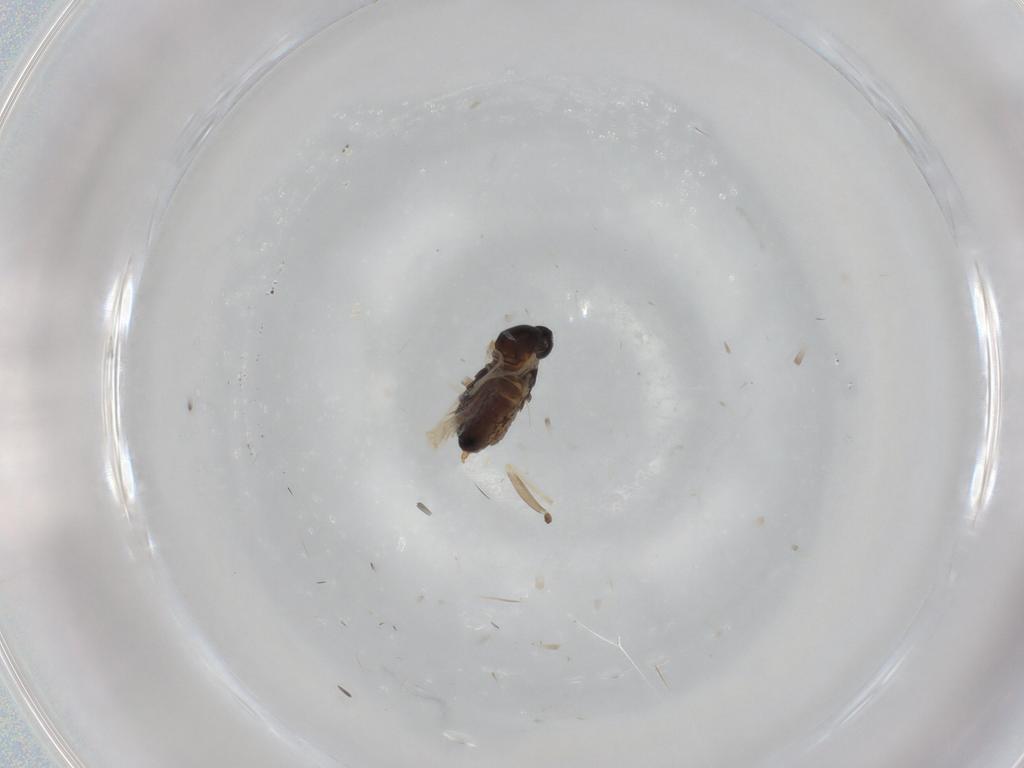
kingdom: Animalia
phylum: Arthropoda
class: Insecta
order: Diptera
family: Cecidomyiidae
